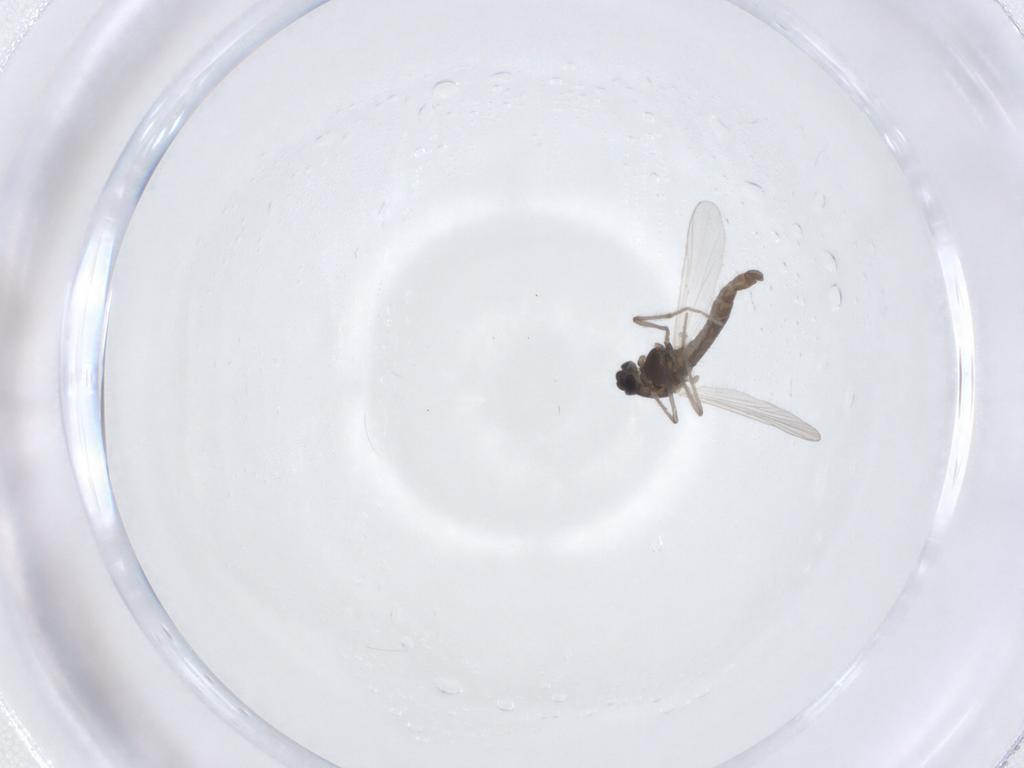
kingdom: Animalia
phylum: Arthropoda
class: Insecta
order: Diptera
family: Chironomidae
